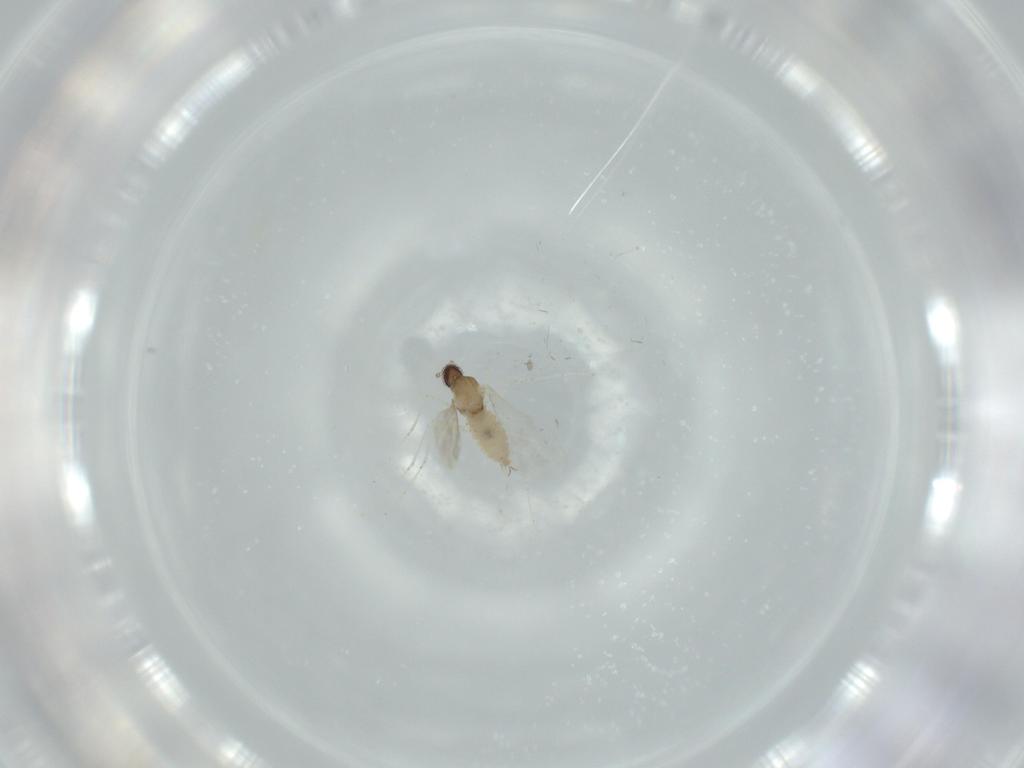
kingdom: Animalia
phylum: Arthropoda
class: Insecta
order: Diptera
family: Cecidomyiidae
